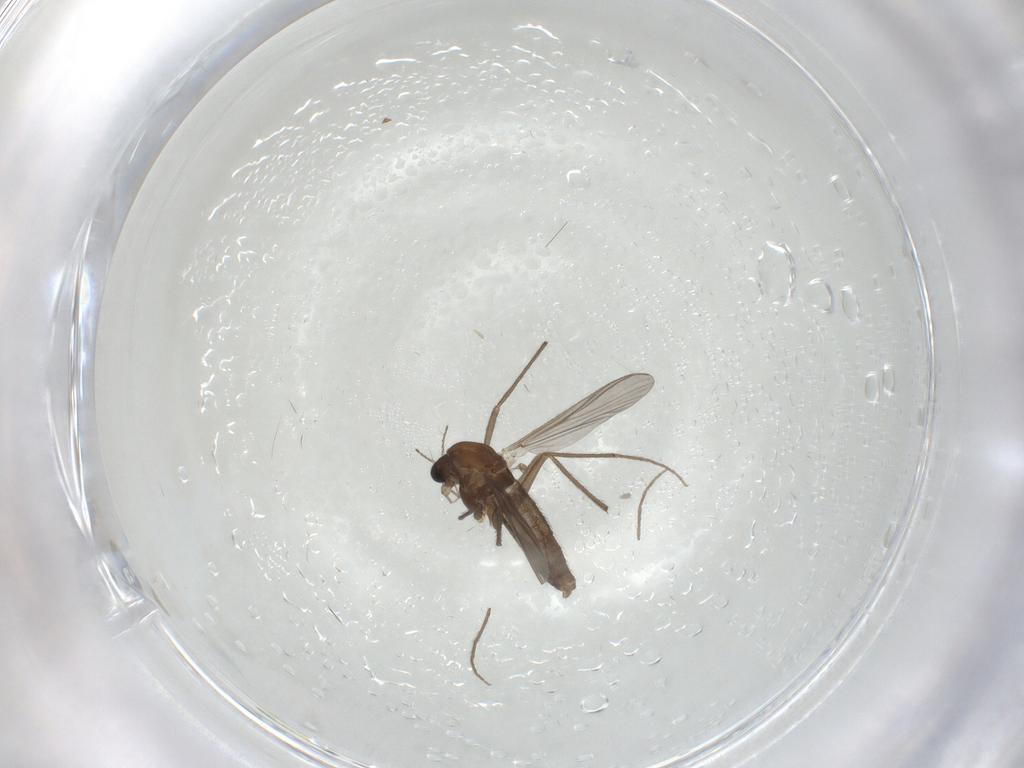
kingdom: Animalia
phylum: Arthropoda
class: Insecta
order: Diptera
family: Chironomidae
